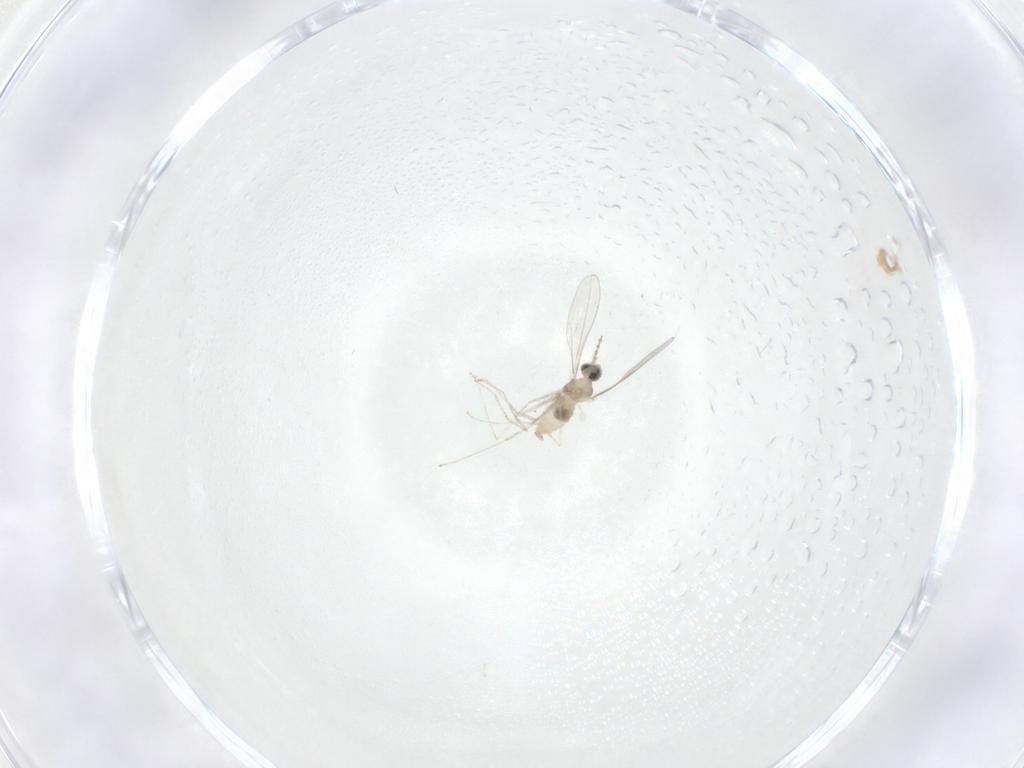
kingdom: Animalia
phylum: Arthropoda
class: Insecta
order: Diptera
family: Cecidomyiidae
